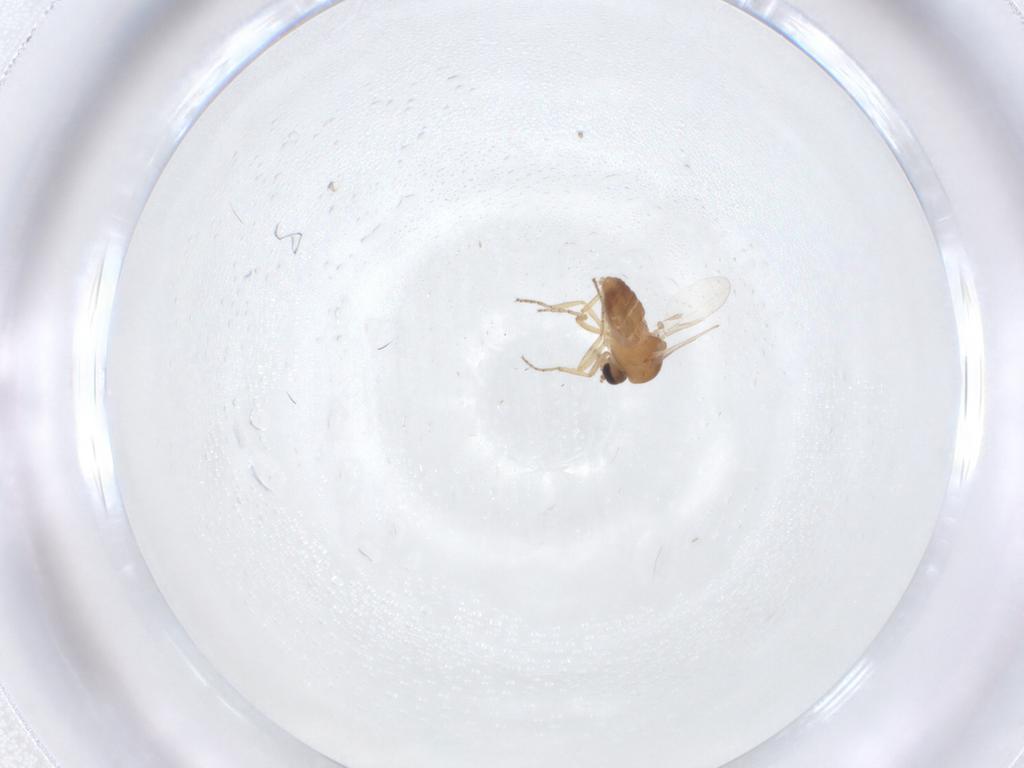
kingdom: Animalia
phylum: Arthropoda
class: Insecta
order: Diptera
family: Ceratopogonidae
